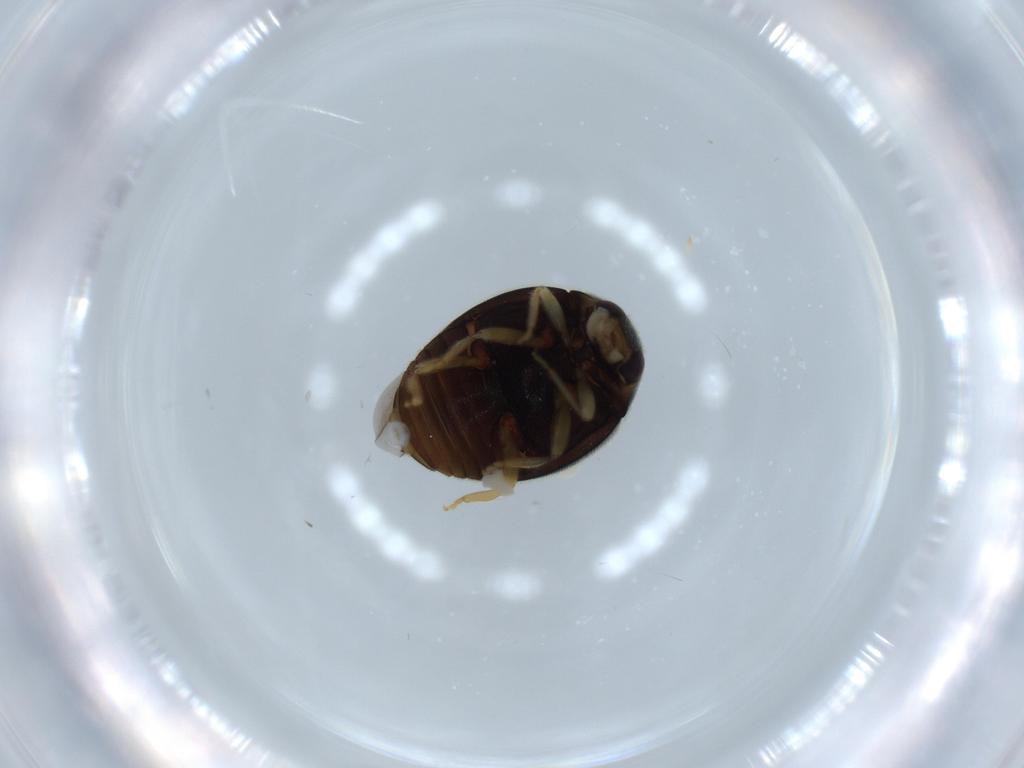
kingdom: Animalia
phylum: Arthropoda
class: Insecta
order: Coleoptera
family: Coccinellidae
